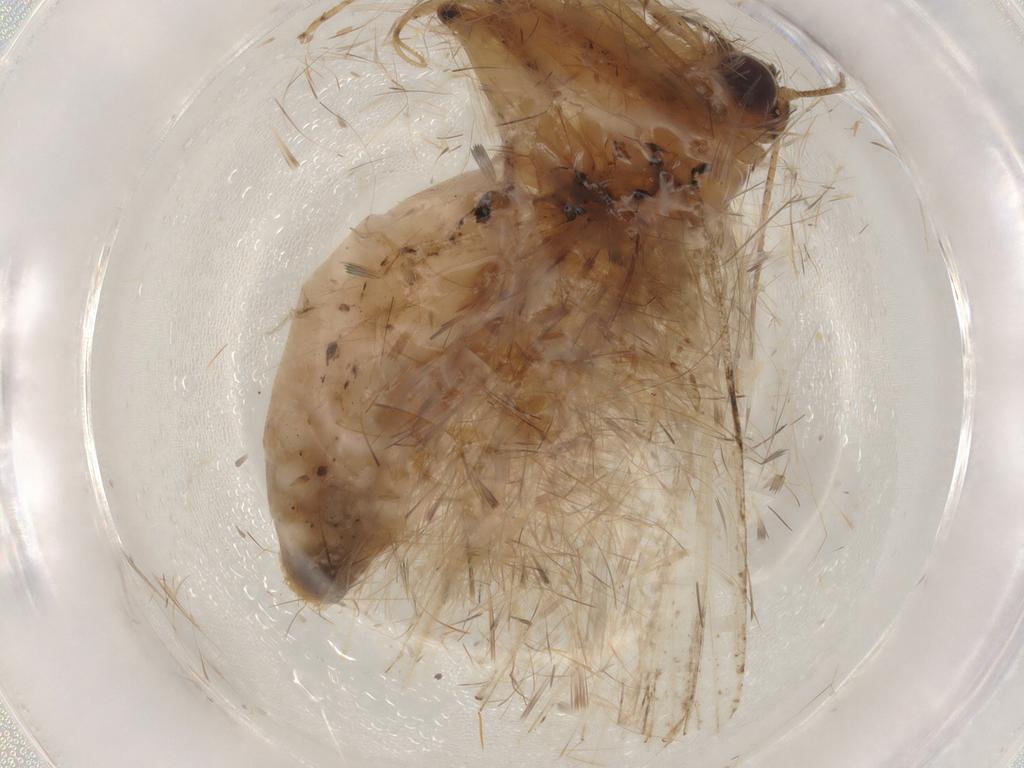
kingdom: Animalia
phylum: Arthropoda
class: Insecta
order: Lepidoptera
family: Erebidae
